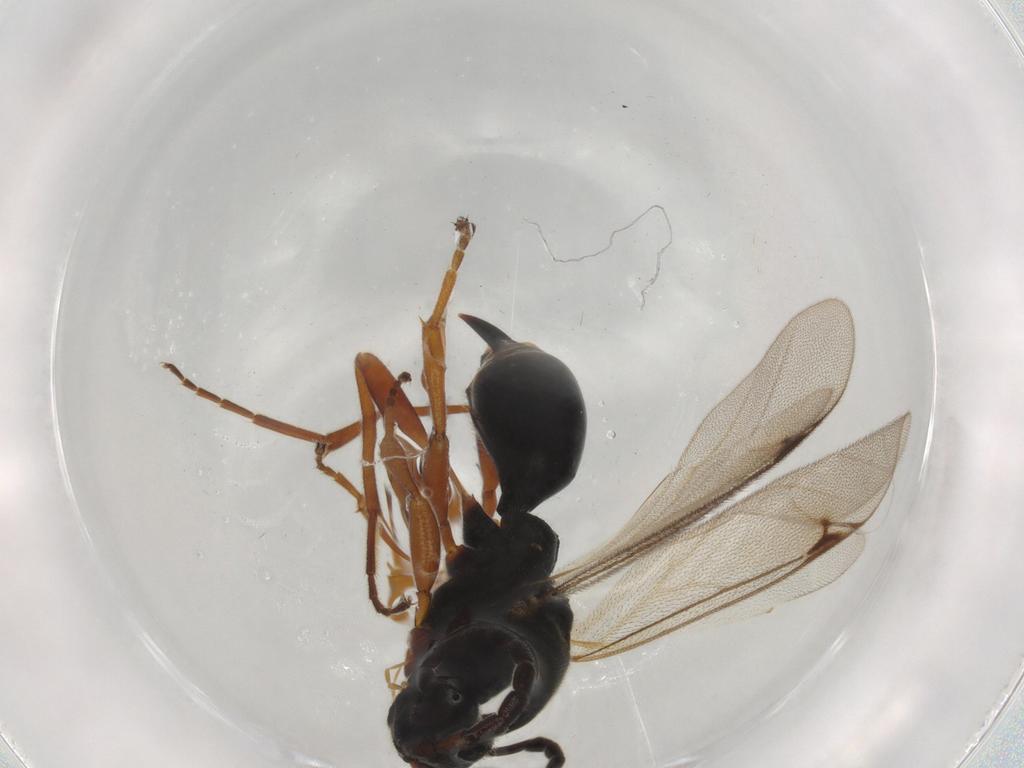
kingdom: Animalia
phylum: Arthropoda
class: Insecta
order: Hymenoptera
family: Proctotrupidae
